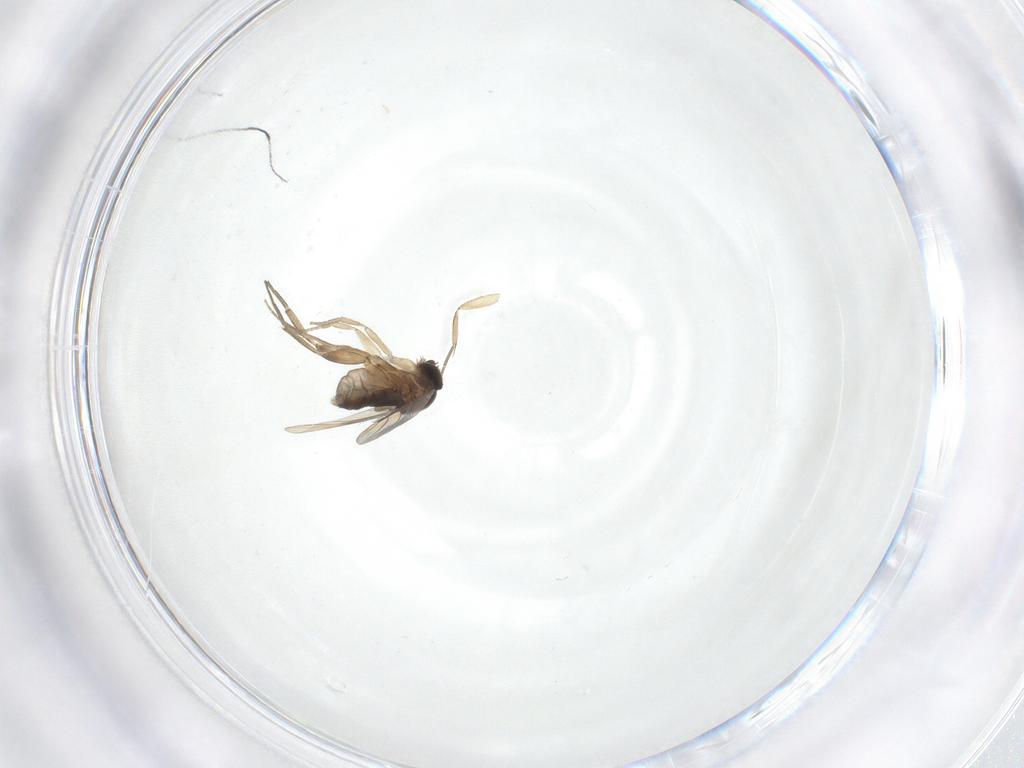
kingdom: Animalia
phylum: Arthropoda
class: Insecta
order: Diptera
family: Phoridae
